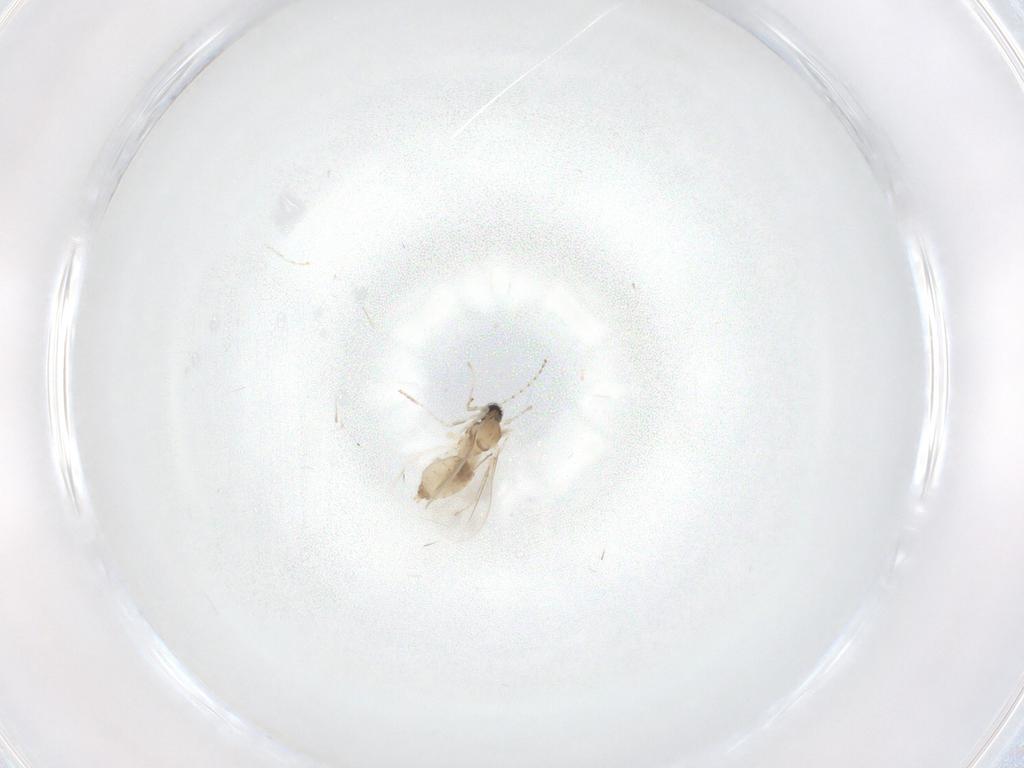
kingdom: Animalia
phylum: Arthropoda
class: Insecta
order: Diptera
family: Cecidomyiidae
